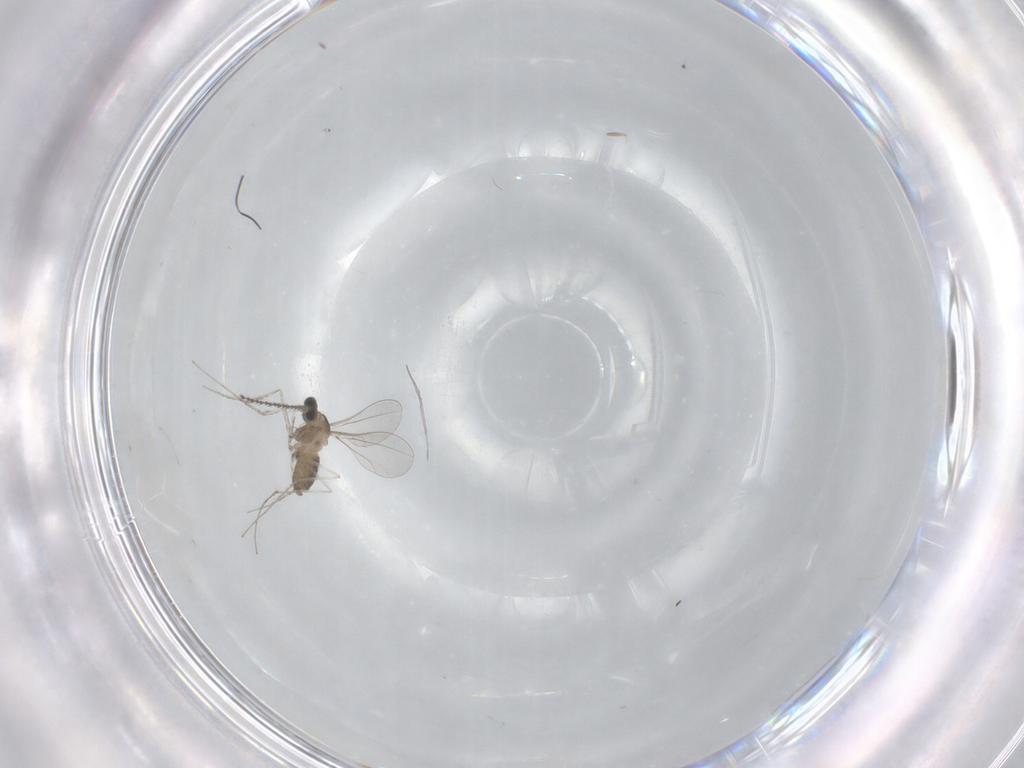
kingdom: Animalia
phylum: Arthropoda
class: Insecta
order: Diptera
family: Cecidomyiidae
